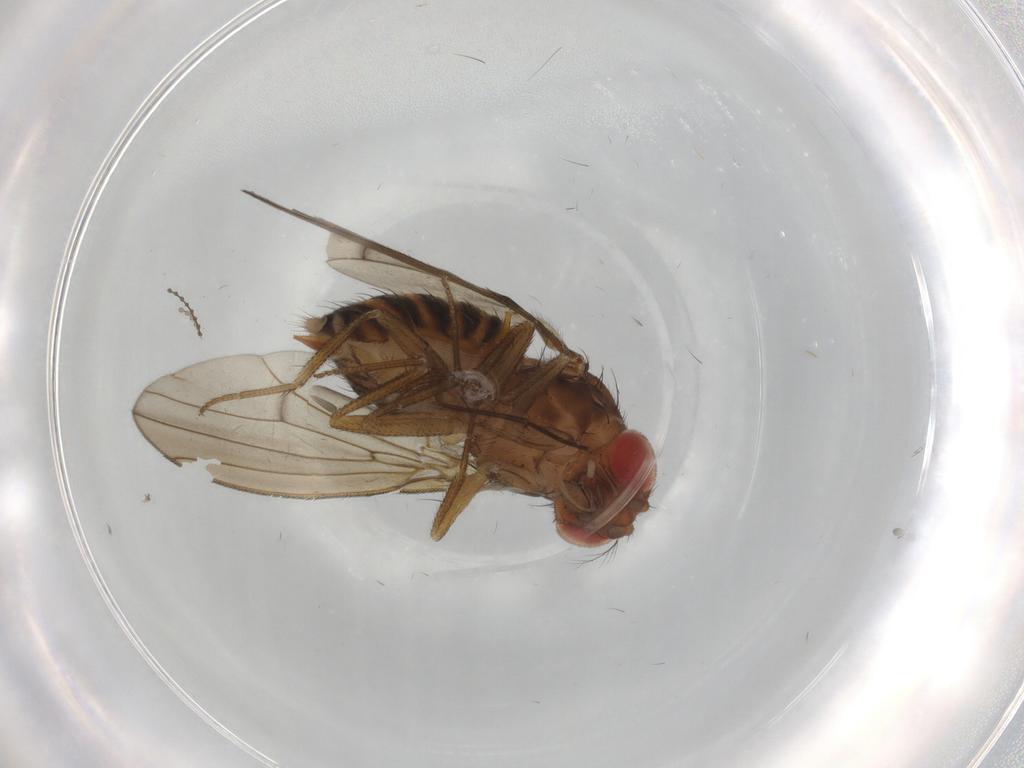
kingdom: Animalia
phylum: Arthropoda
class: Insecta
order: Diptera
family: Drosophilidae
